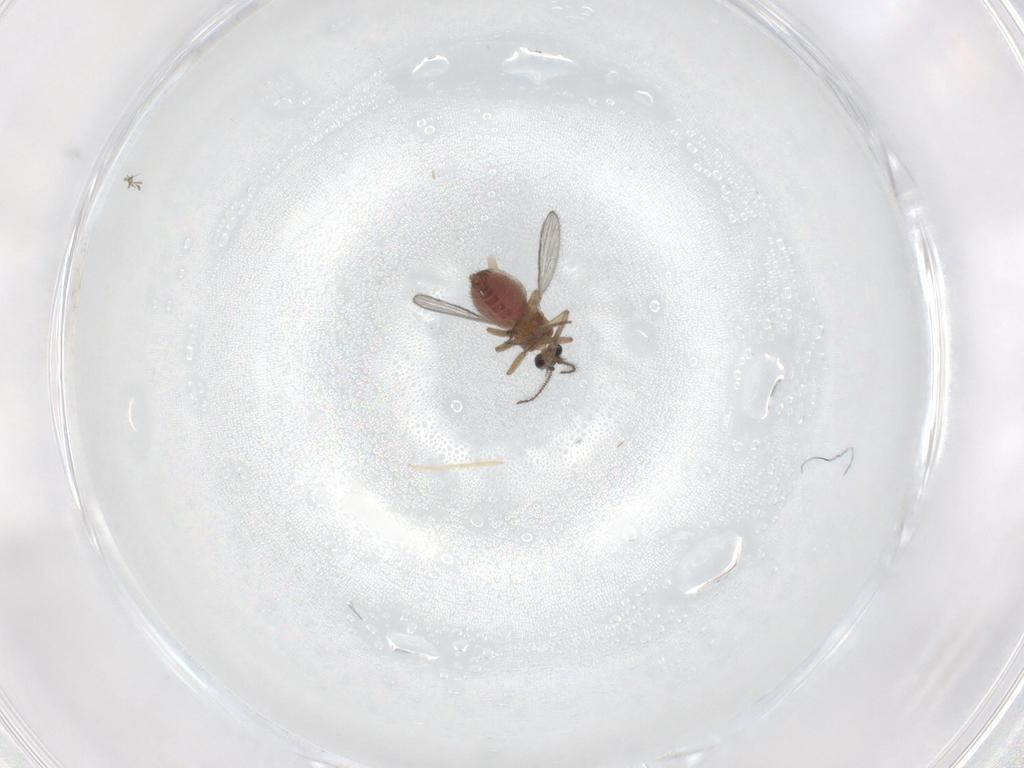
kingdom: Animalia
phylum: Arthropoda
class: Insecta
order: Diptera
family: Chironomidae
